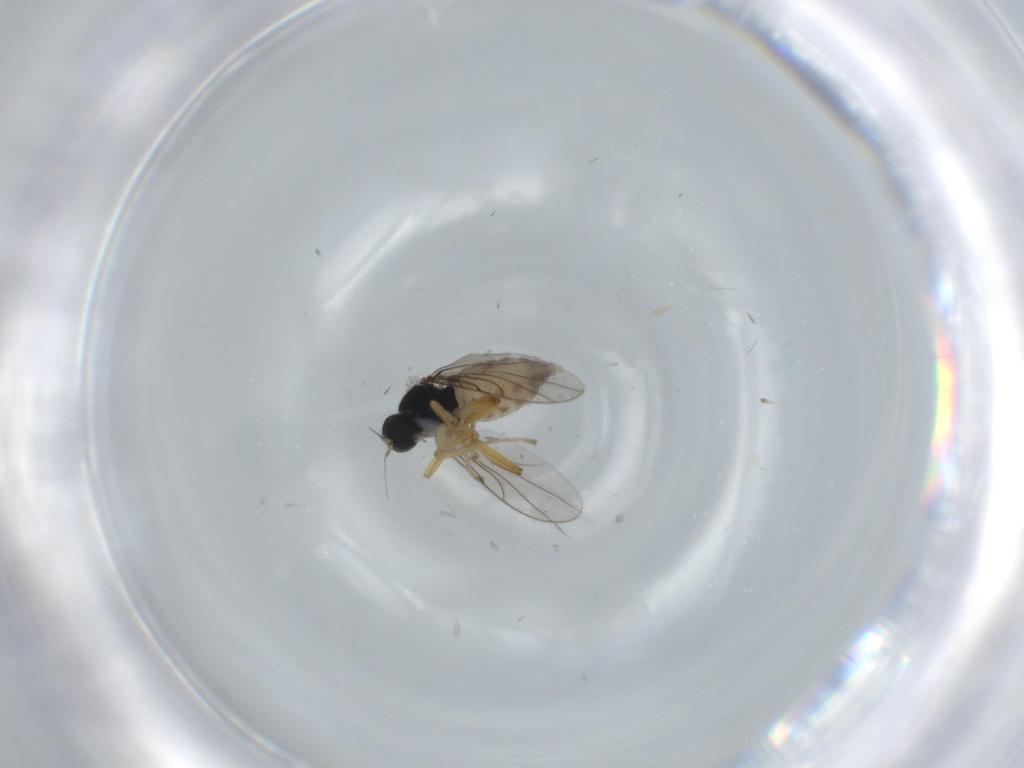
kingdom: Animalia
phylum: Arthropoda
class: Insecta
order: Diptera
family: Hybotidae
